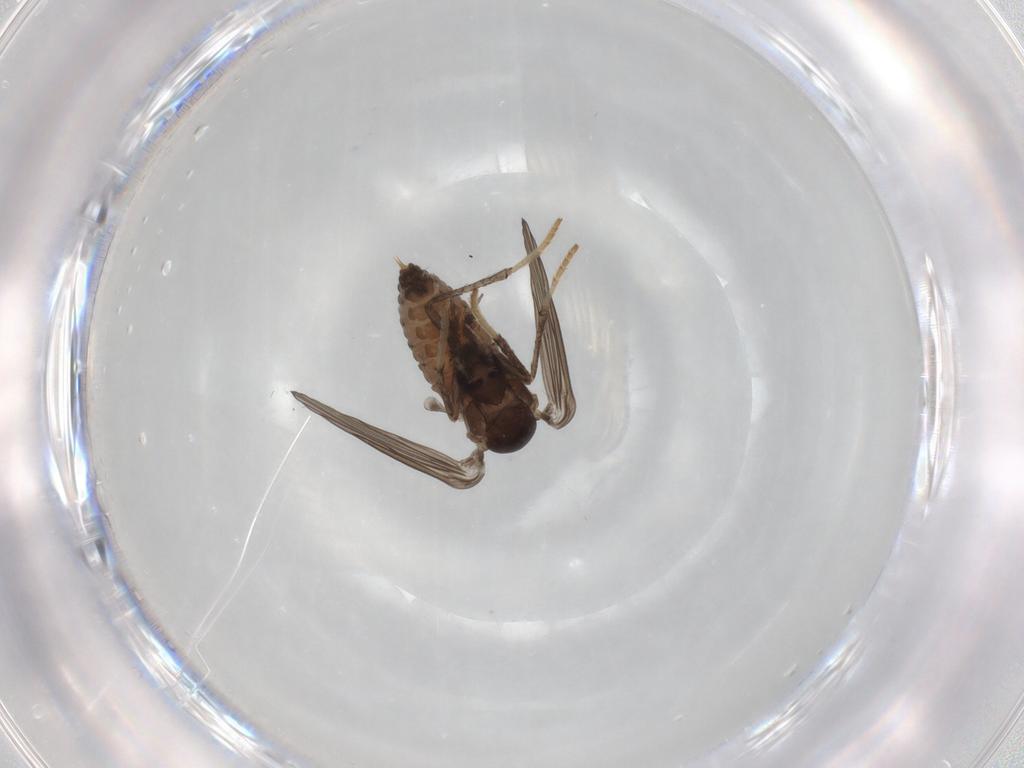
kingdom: Animalia
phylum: Arthropoda
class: Insecta
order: Diptera
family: Psychodidae
